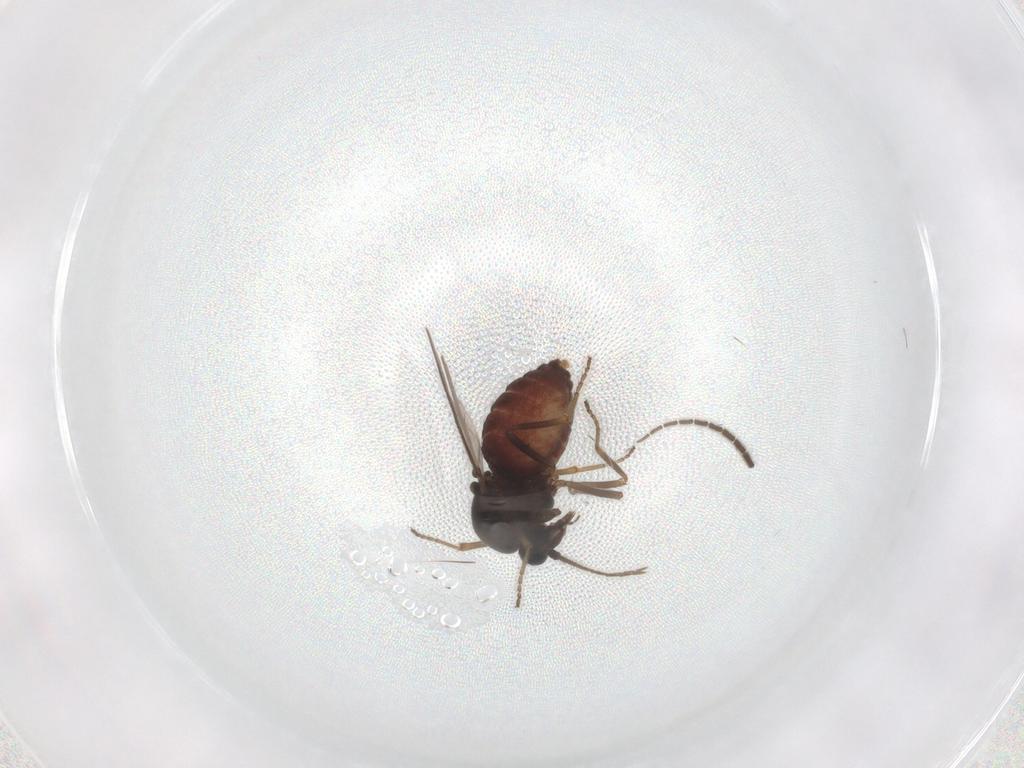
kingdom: Animalia
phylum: Arthropoda
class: Insecta
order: Diptera
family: Ceratopogonidae
